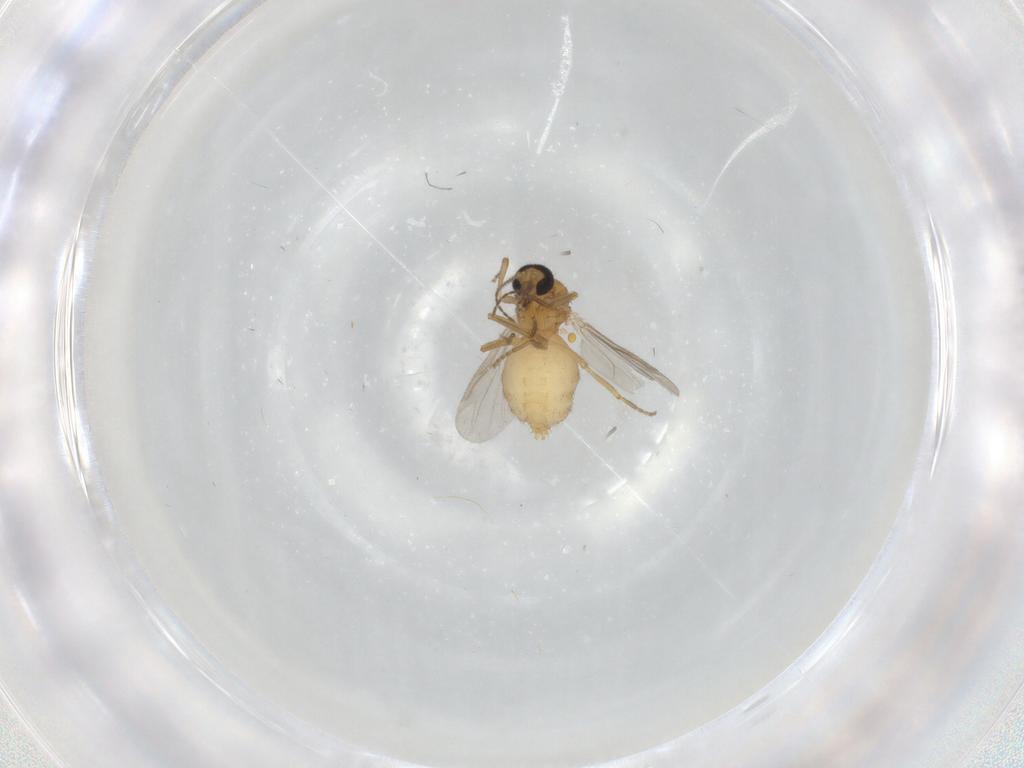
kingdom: Animalia
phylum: Arthropoda
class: Insecta
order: Diptera
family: Ceratopogonidae
